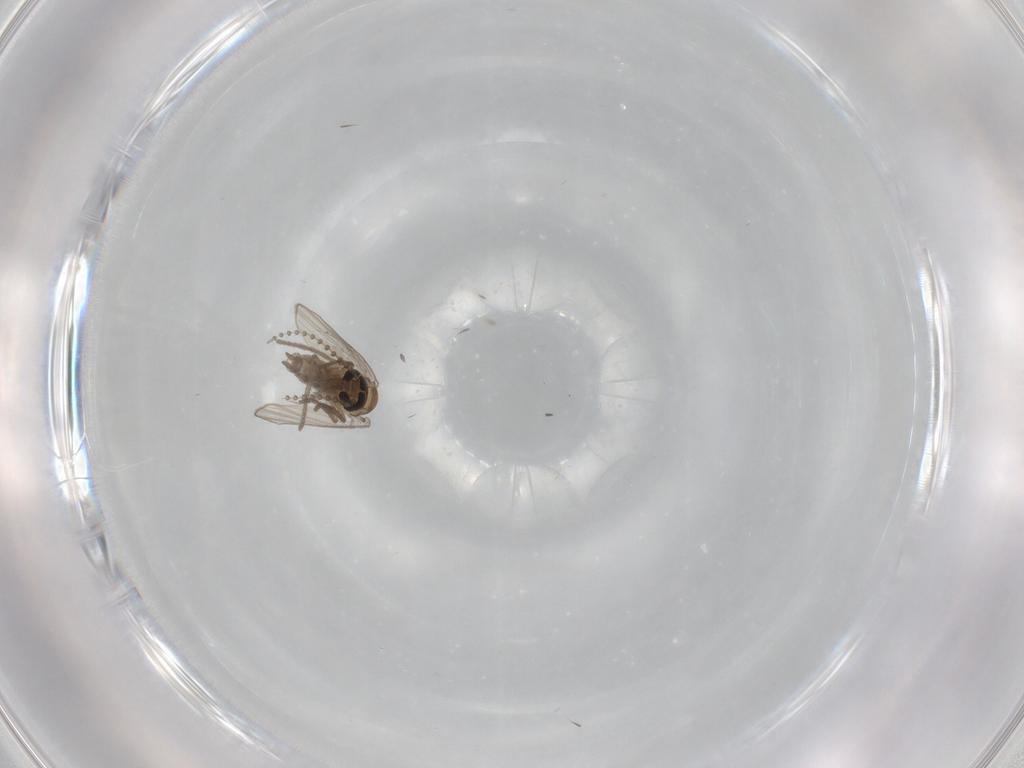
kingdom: Animalia
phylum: Arthropoda
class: Insecta
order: Diptera
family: Psychodidae
